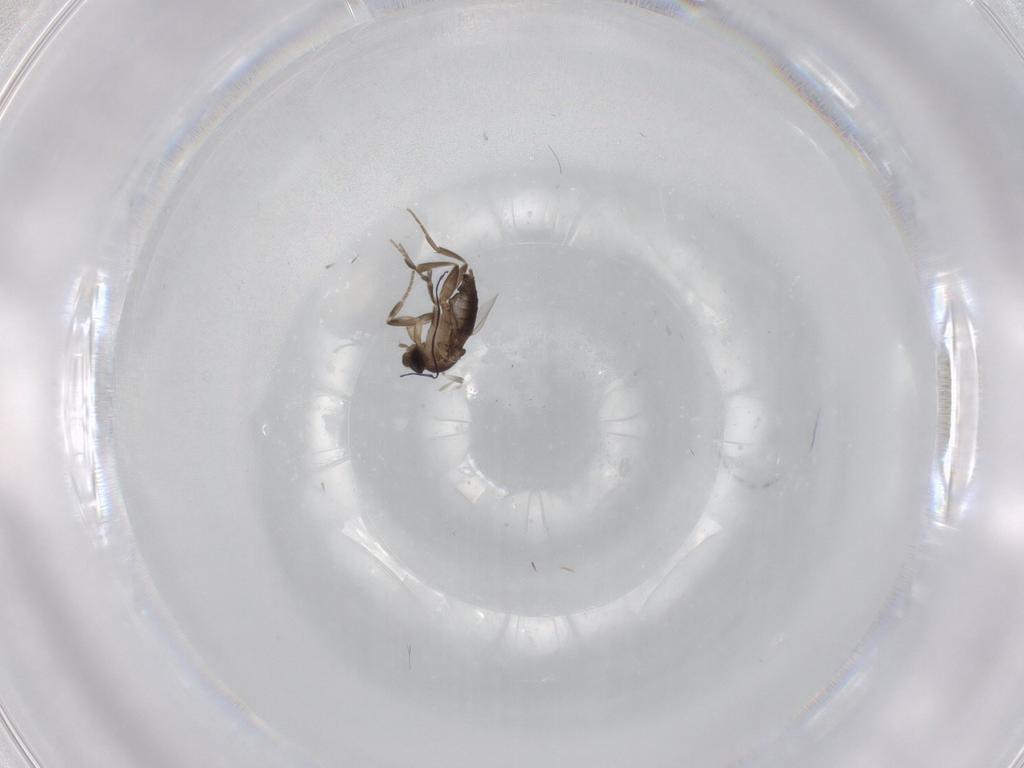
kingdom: Animalia
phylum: Arthropoda
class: Insecta
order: Diptera
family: Phoridae
